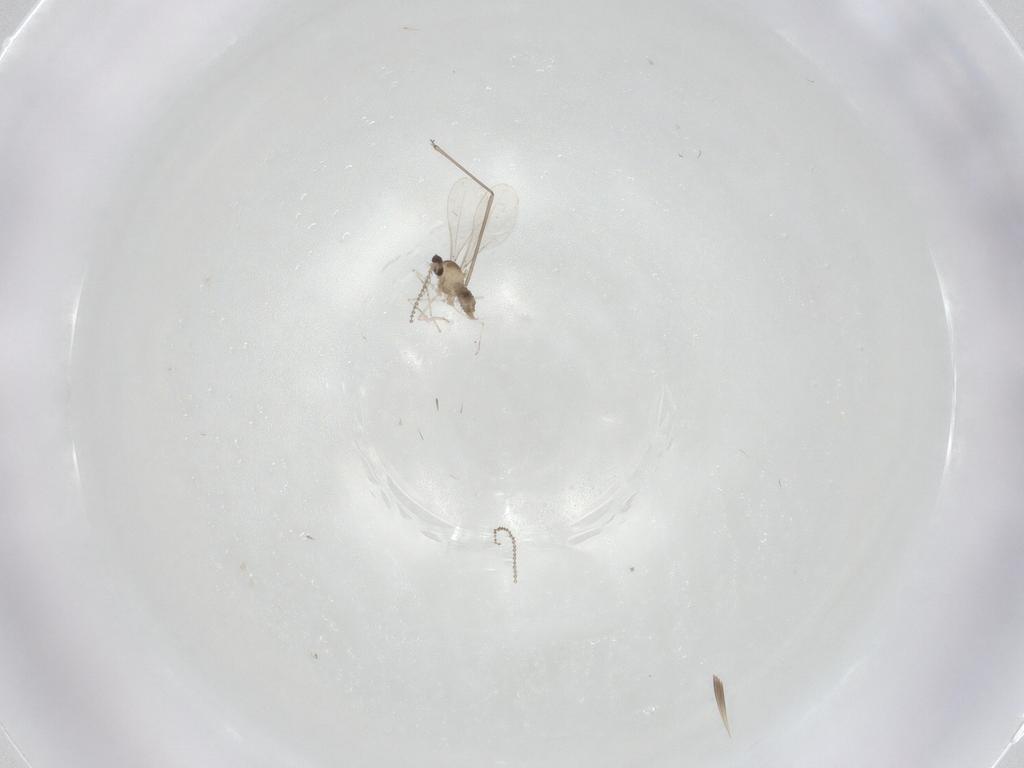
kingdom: Animalia
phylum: Arthropoda
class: Insecta
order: Diptera
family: Cecidomyiidae
